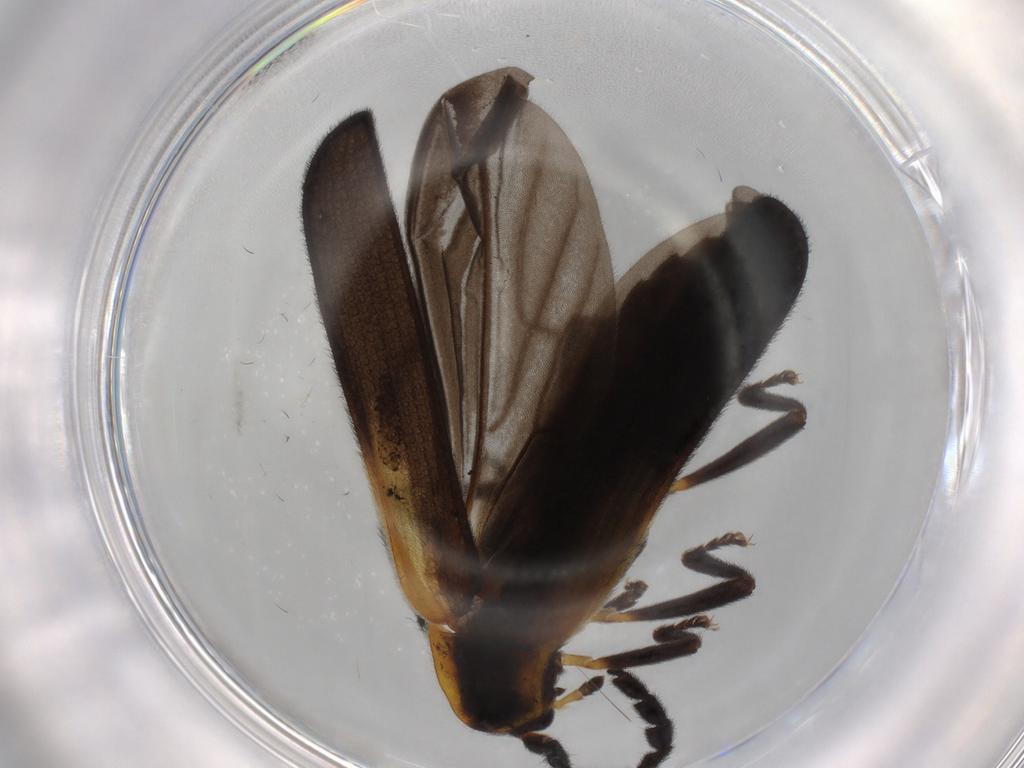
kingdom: Animalia
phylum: Arthropoda
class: Insecta
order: Coleoptera
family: Lycidae
